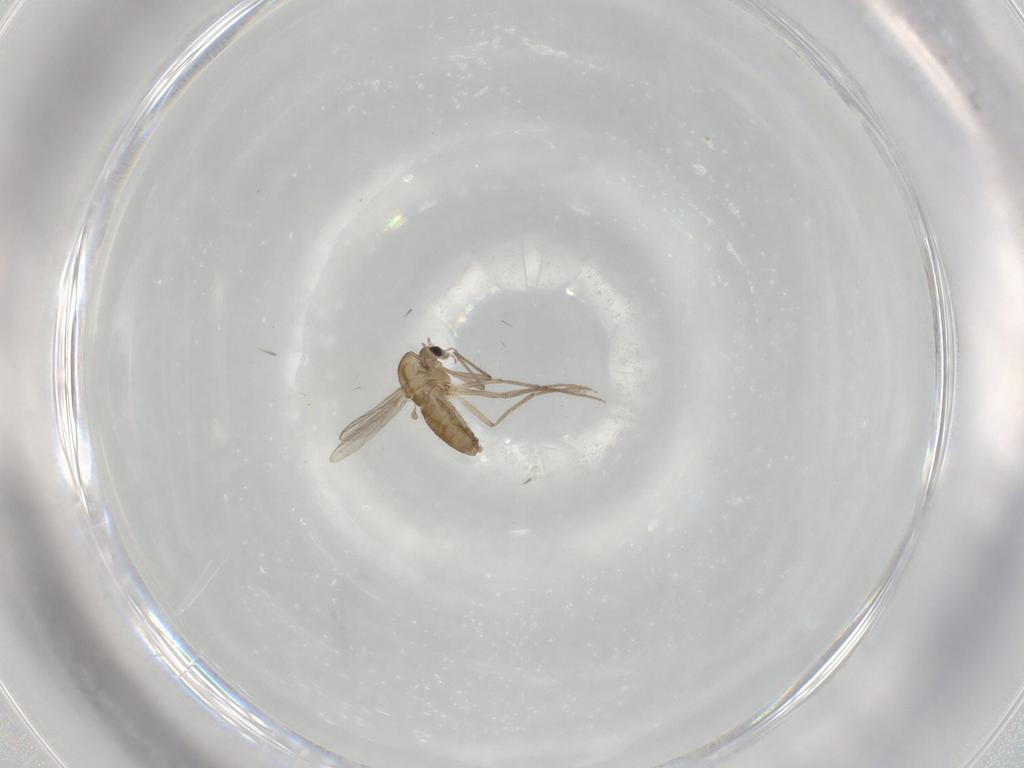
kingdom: Animalia
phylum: Arthropoda
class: Insecta
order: Diptera
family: Chironomidae
